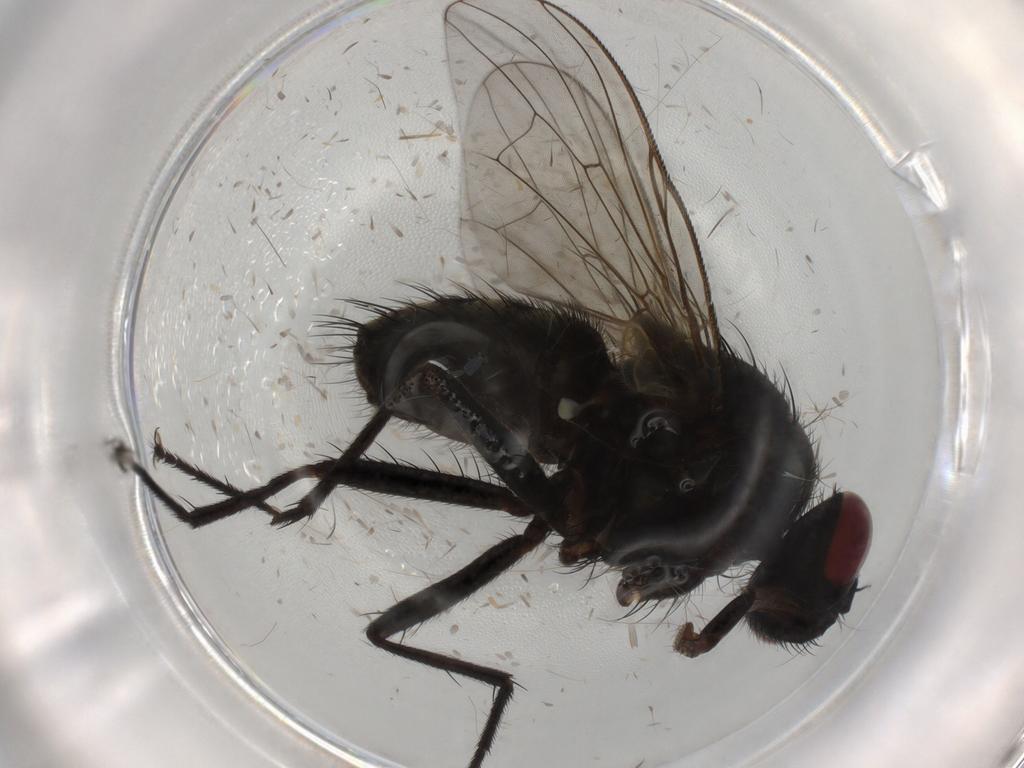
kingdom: Animalia
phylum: Arthropoda
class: Insecta
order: Diptera
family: Muscidae
